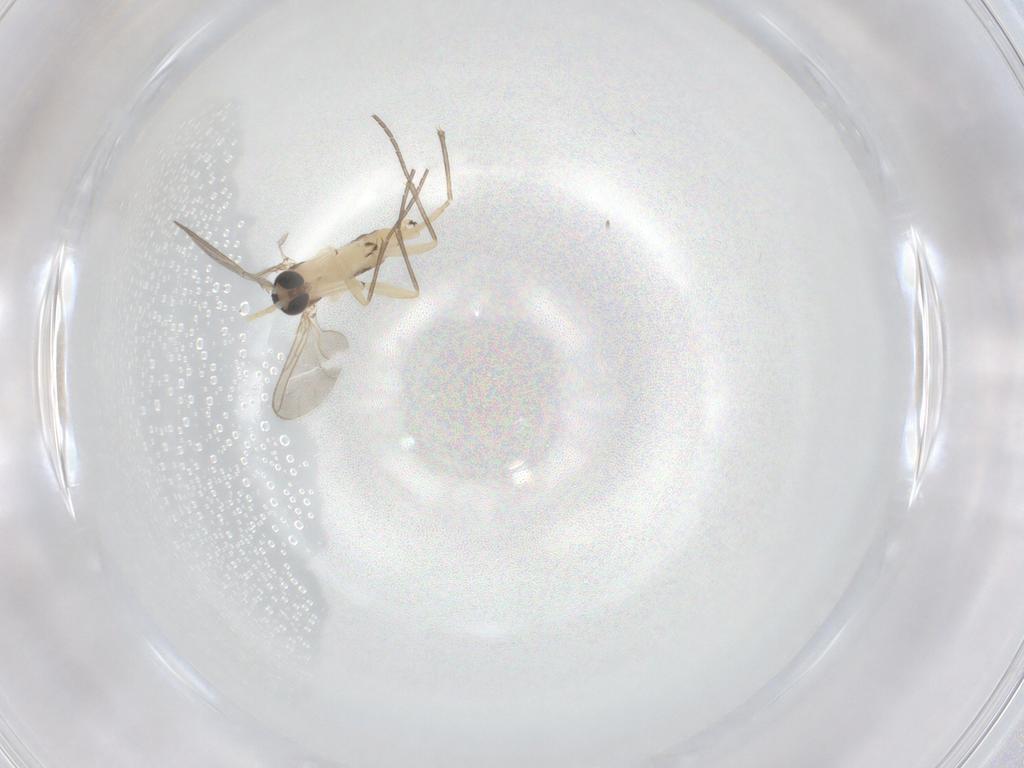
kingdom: Animalia
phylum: Arthropoda
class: Insecta
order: Diptera
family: Sciaridae
